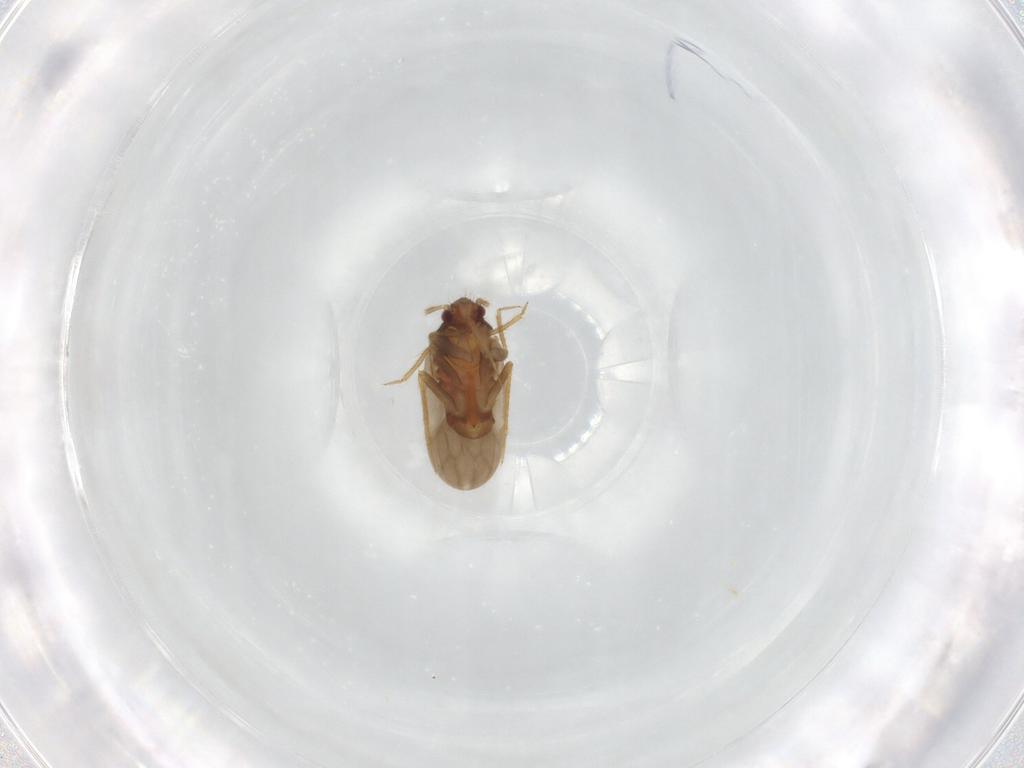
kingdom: Animalia
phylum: Arthropoda
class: Insecta
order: Hemiptera
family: Ceratocombidae
